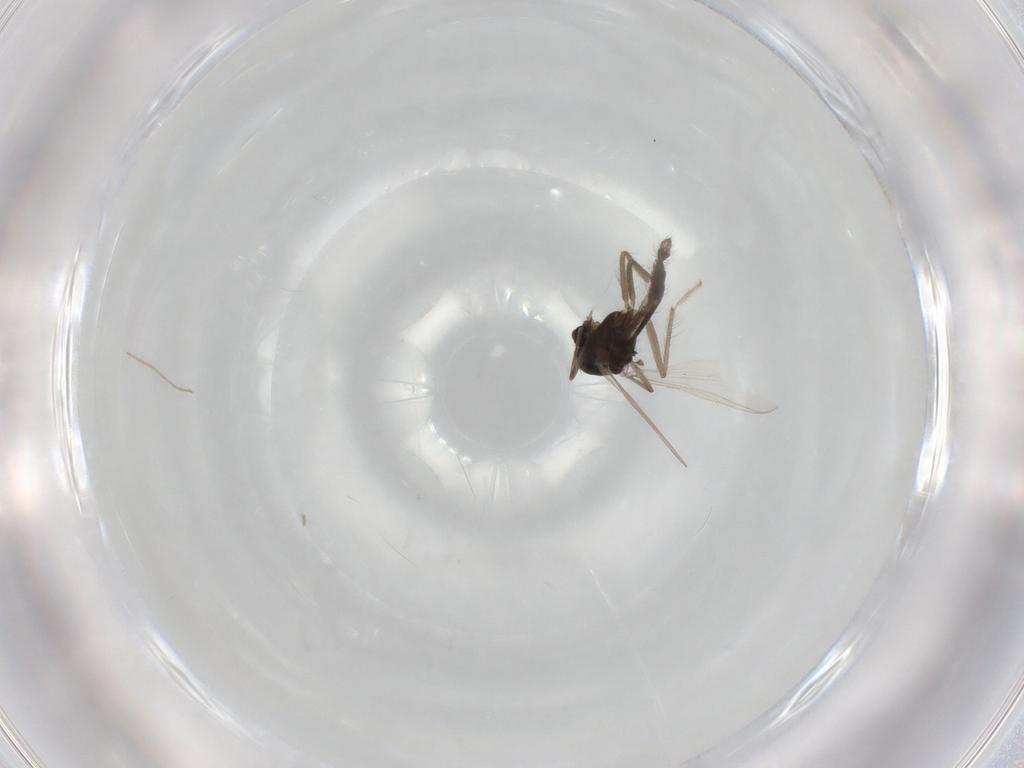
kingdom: Animalia
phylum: Arthropoda
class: Insecta
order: Diptera
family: Chironomidae
